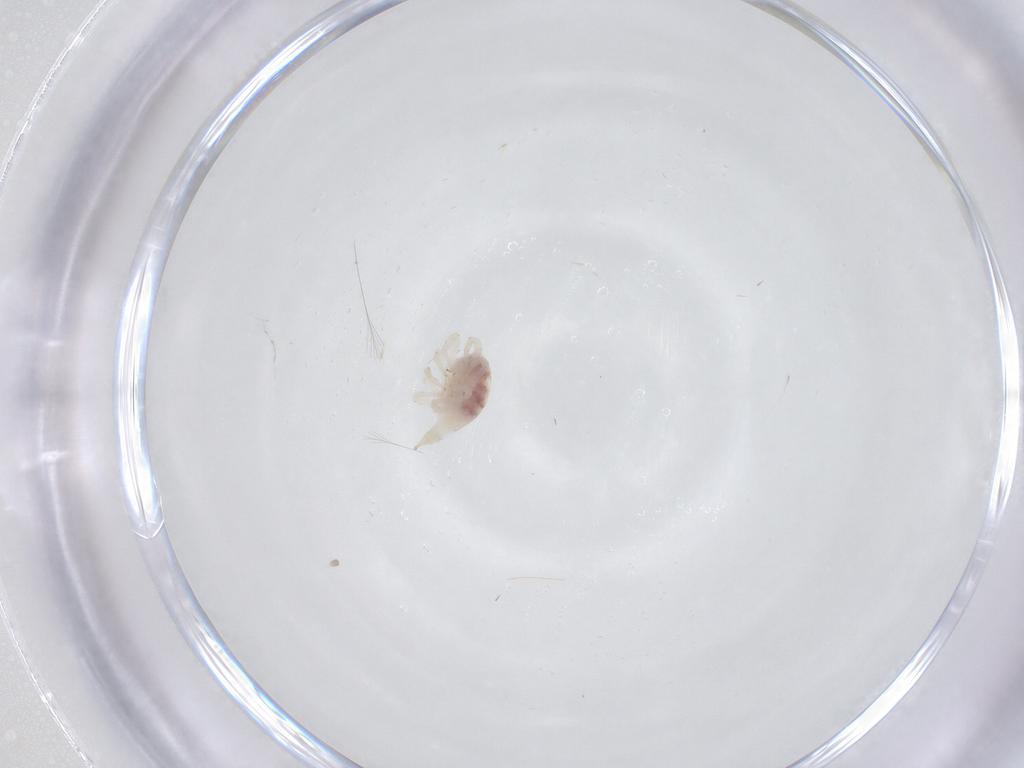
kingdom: Animalia
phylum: Arthropoda
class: Arachnida
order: Trombidiformes
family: Bdellidae
